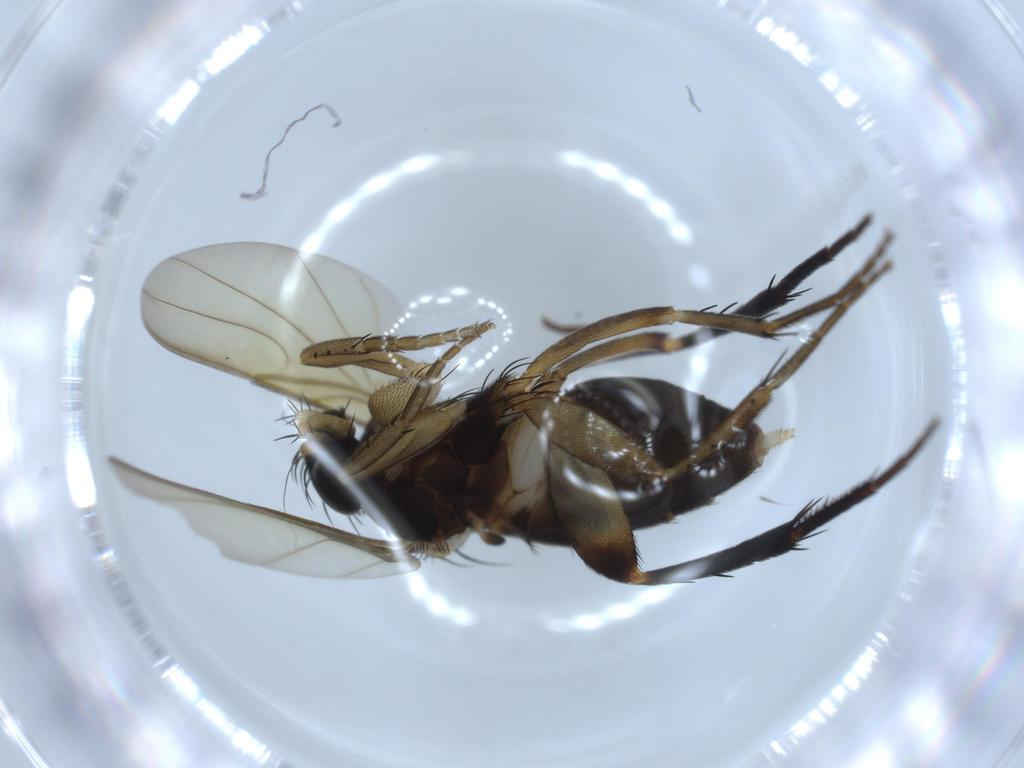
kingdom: Animalia
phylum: Arthropoda
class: Insecta
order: Diptera
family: Phoridae
